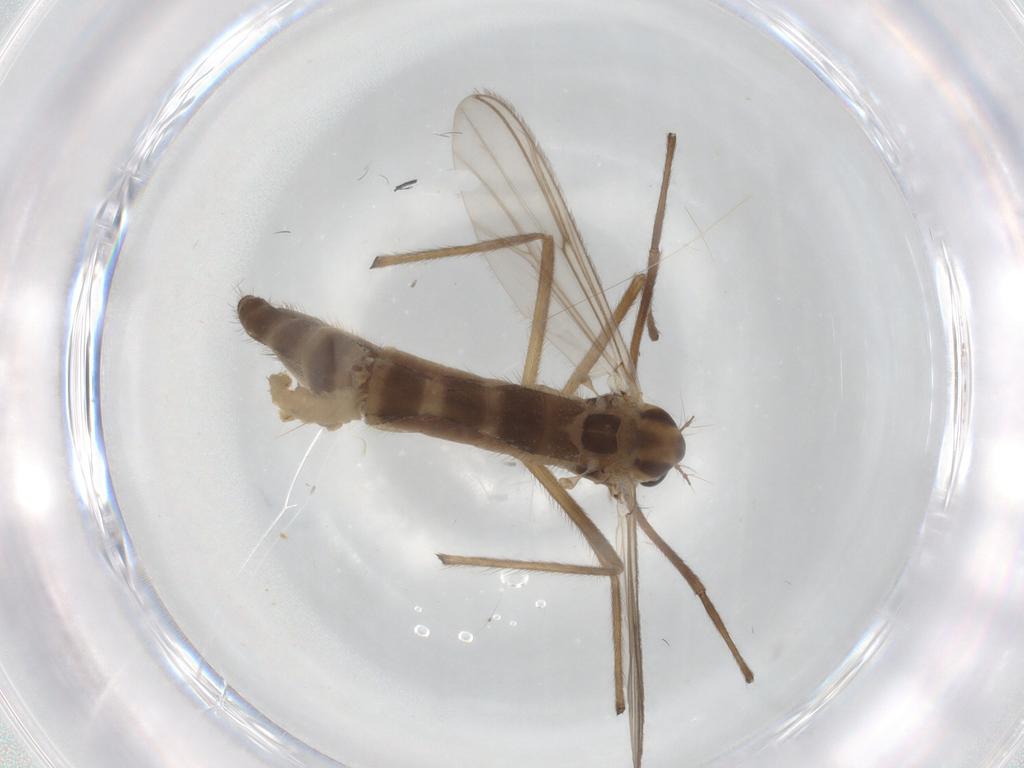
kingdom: Animalia
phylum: Arthropoda
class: Insecta
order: Diptera
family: Chironomidae
